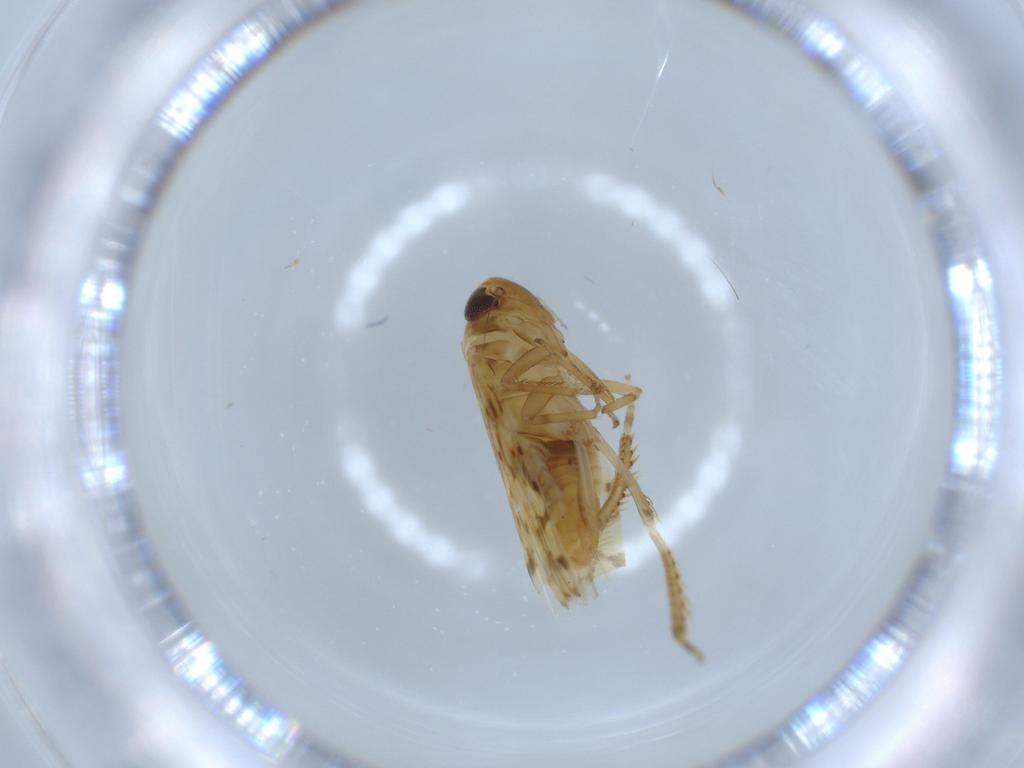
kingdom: Animalia
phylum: Arthropoda
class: Insecta
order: Hemiptera
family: Cicadellidae
